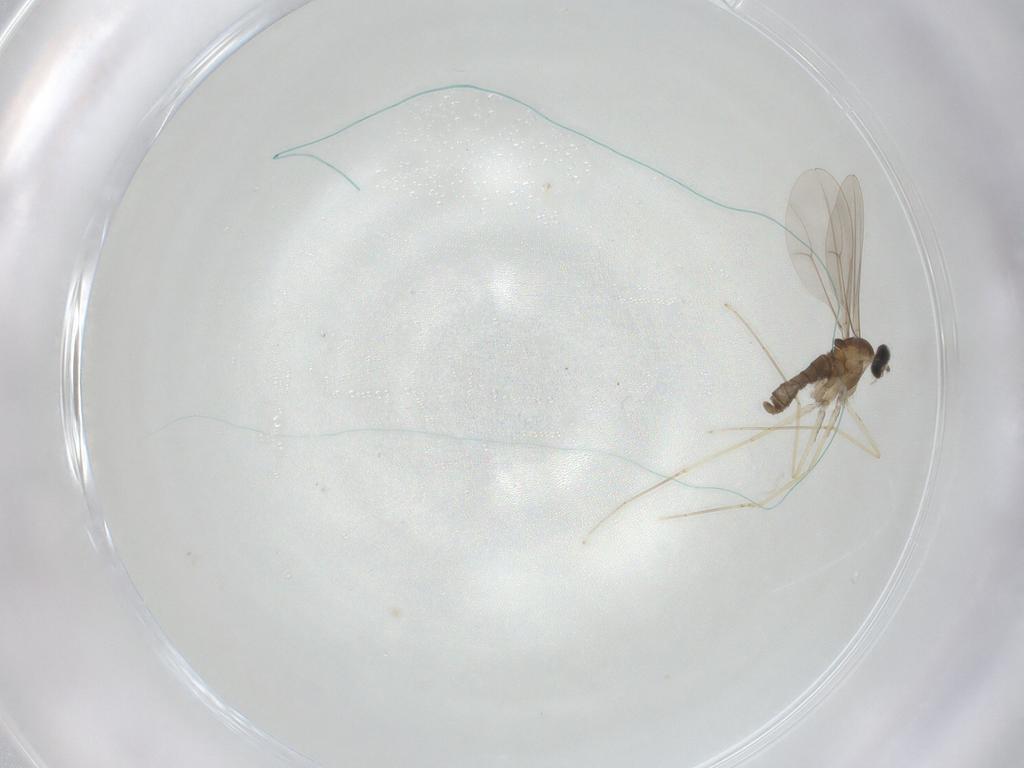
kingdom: Animalia
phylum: Arthropoda
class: Insecta
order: Diptera
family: Cecidomyiidae
